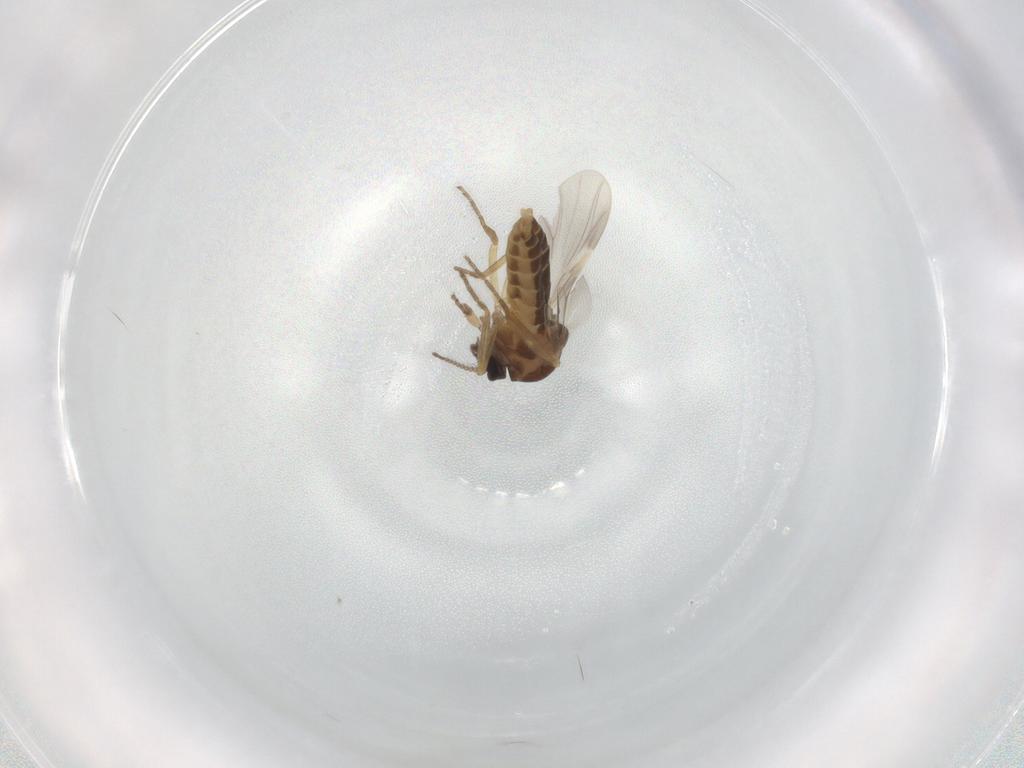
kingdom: Animalia
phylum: Arthropoda
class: Insecta
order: Diptera
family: Ceratopogonidae
